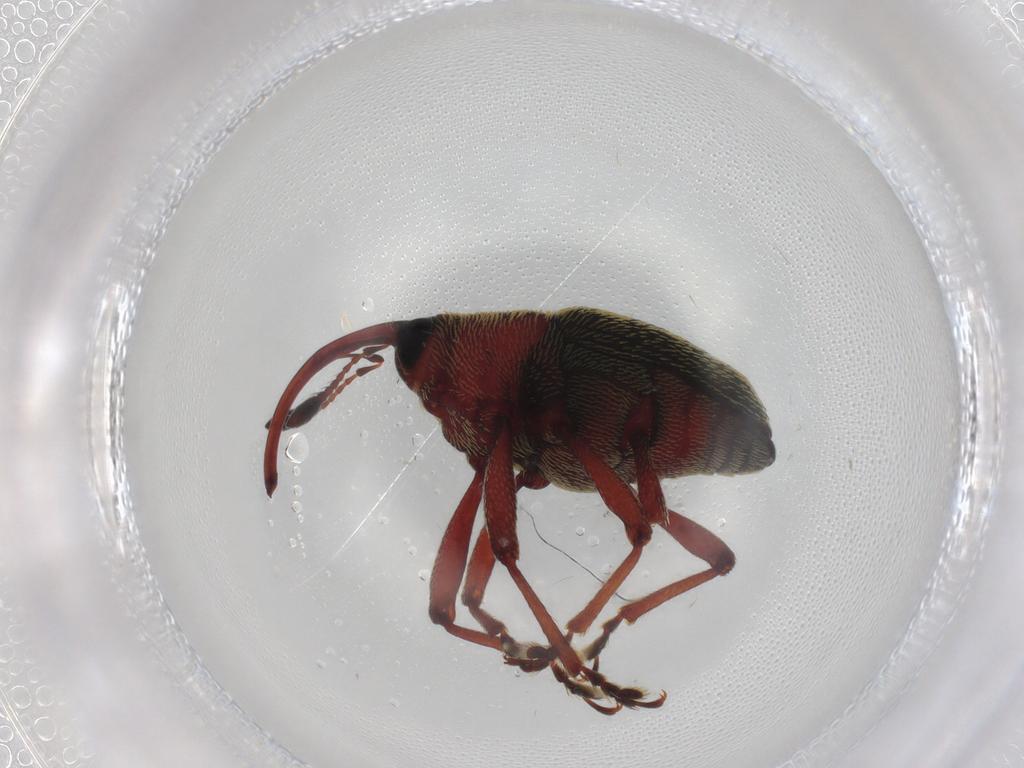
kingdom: Animalia
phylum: Arthropoda
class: Insecta
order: Coleoptera
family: Curculionidae
